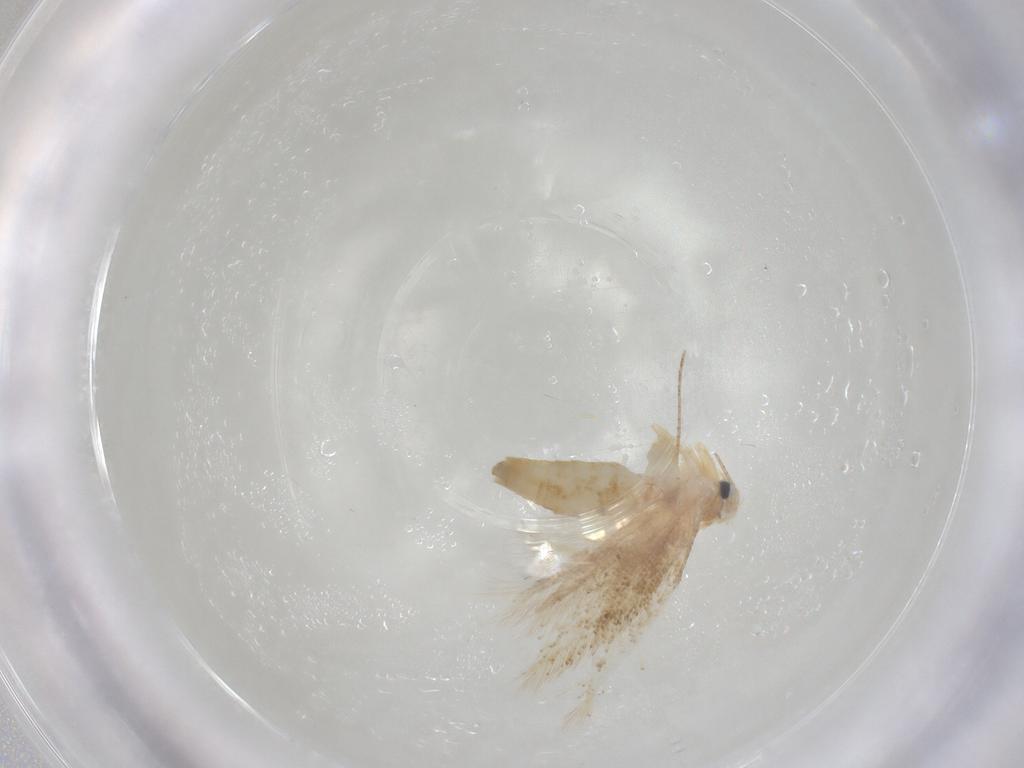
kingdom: Animalia
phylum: Arthropoda
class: Insecta
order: Lepidoptera
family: Depressariidae
